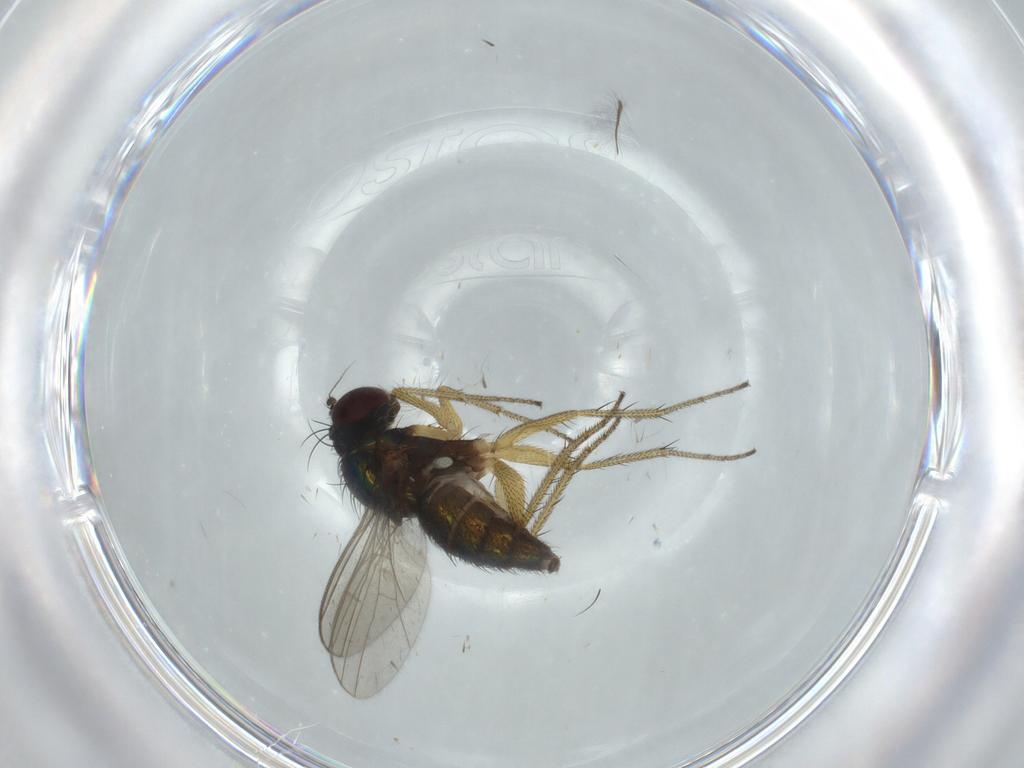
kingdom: Animalia
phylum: Arthropoda
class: Insecta
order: Diptera
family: Dolichopodidae
